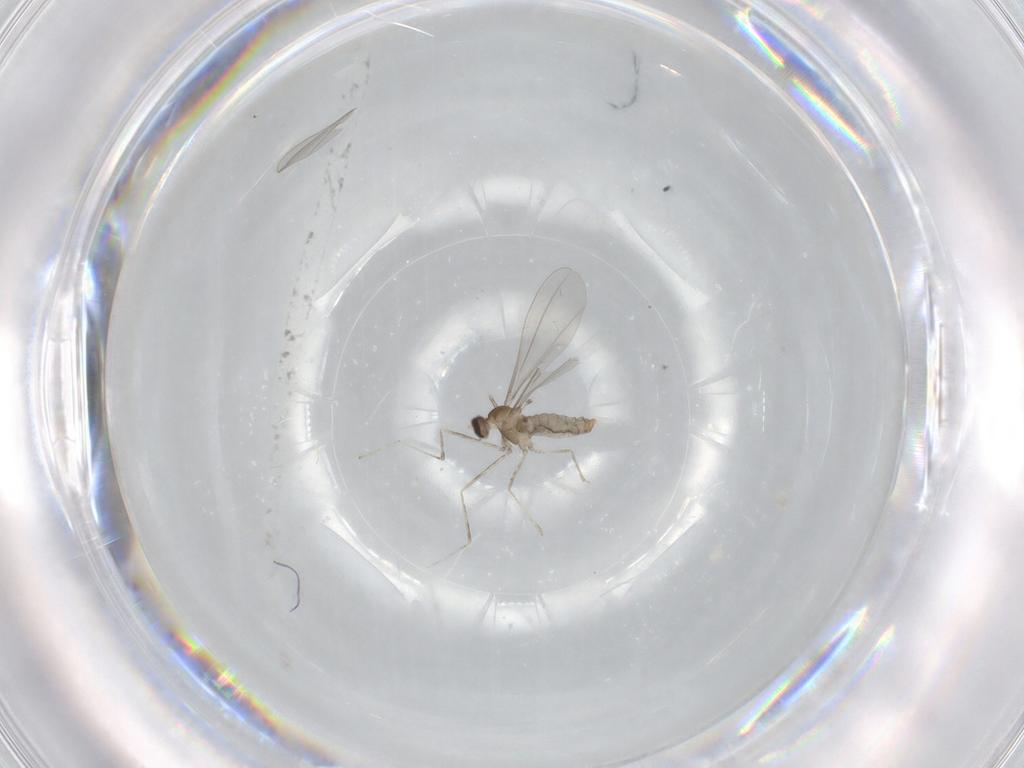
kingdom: Animalia
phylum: Arthropoda
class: Insecta
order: Diptera
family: Cecidomyiidae
